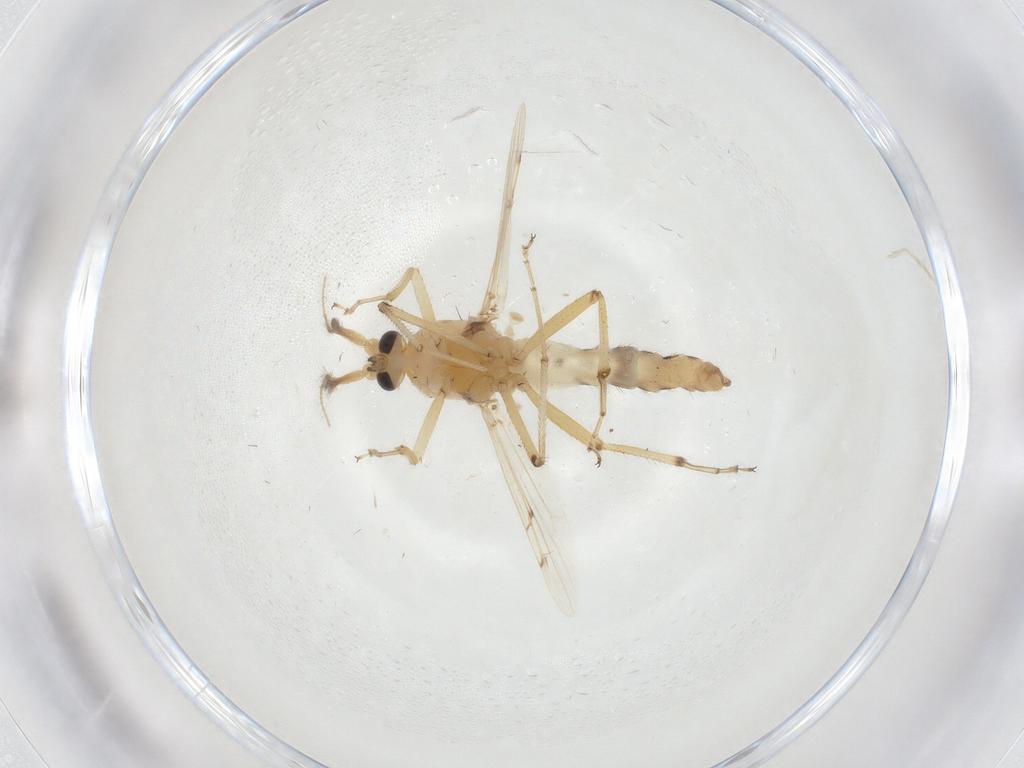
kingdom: Animalia
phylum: Arthropoda
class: Insecta
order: Diptera
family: Ceratopogonidae
